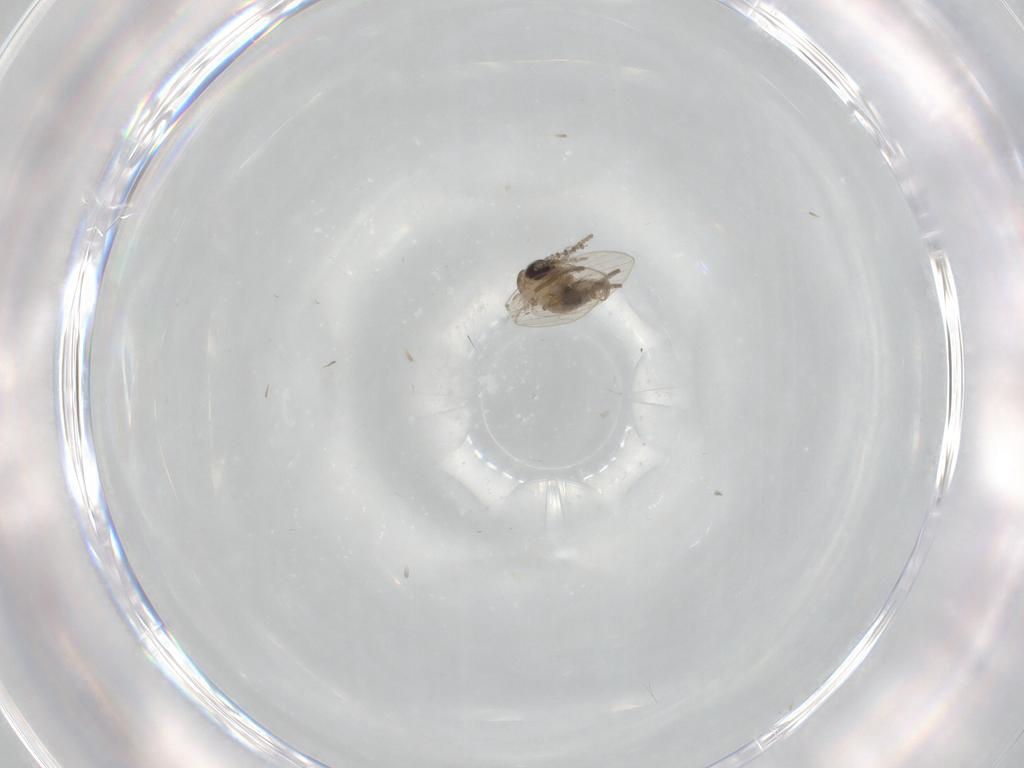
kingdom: Animalia
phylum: Arthropoda
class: Insecta
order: Diptera
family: Psychodidae
